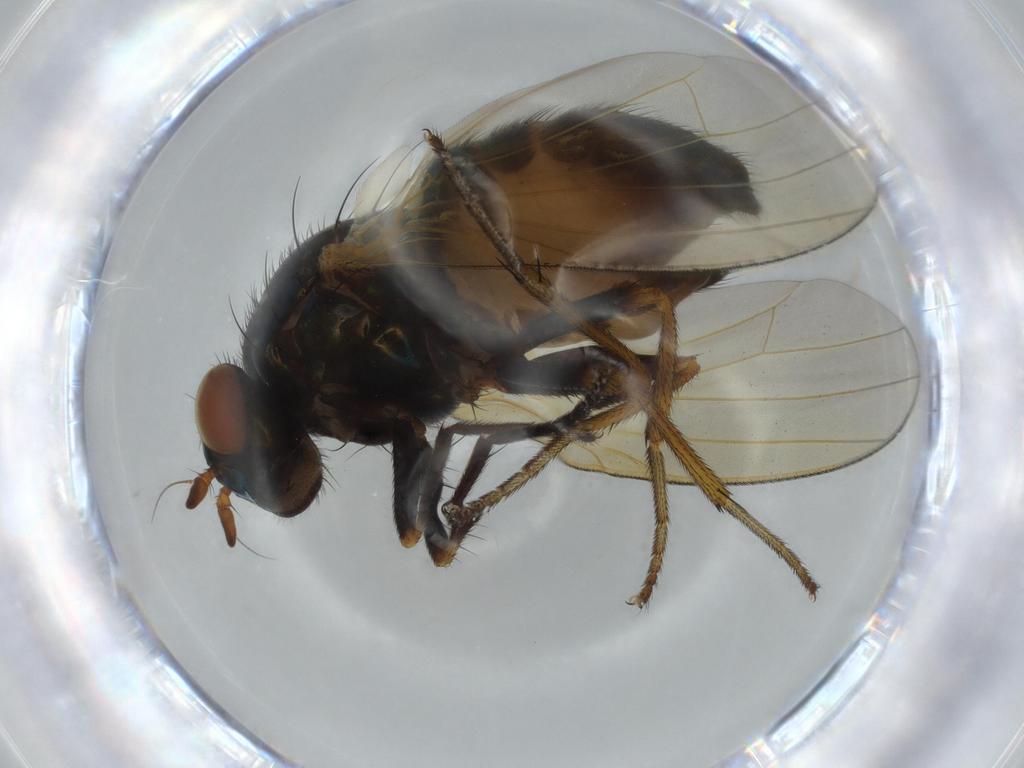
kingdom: Animalia
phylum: Arthropoda
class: Insecta
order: Diptera
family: Lauxaniidae
